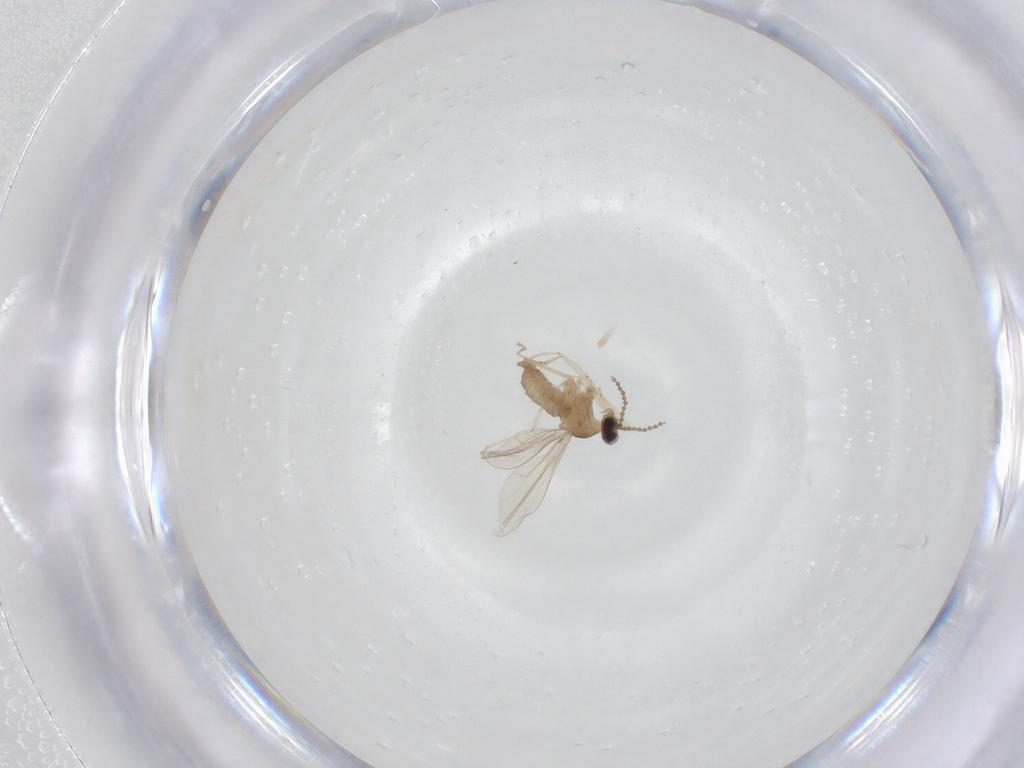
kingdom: Animalia
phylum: Arthropoda
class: Insecta
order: Diptera
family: Cecidomyiidae
